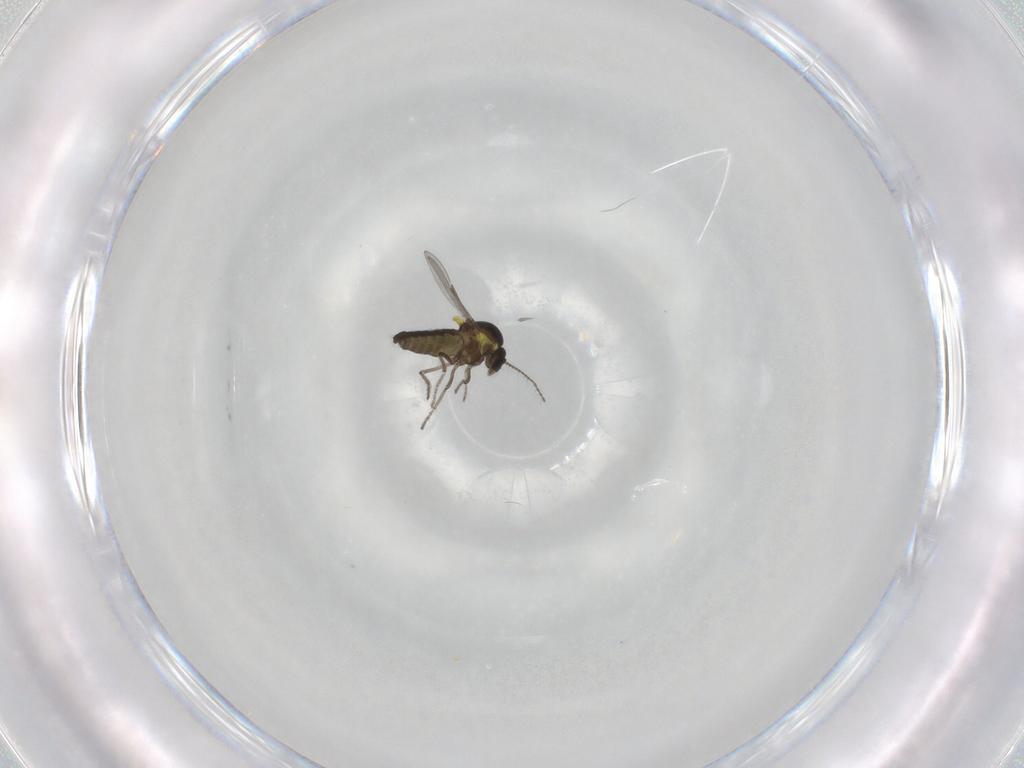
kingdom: Animalia
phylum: Arthropoda
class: Insecta
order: Diptera
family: Ceratopogonidae
